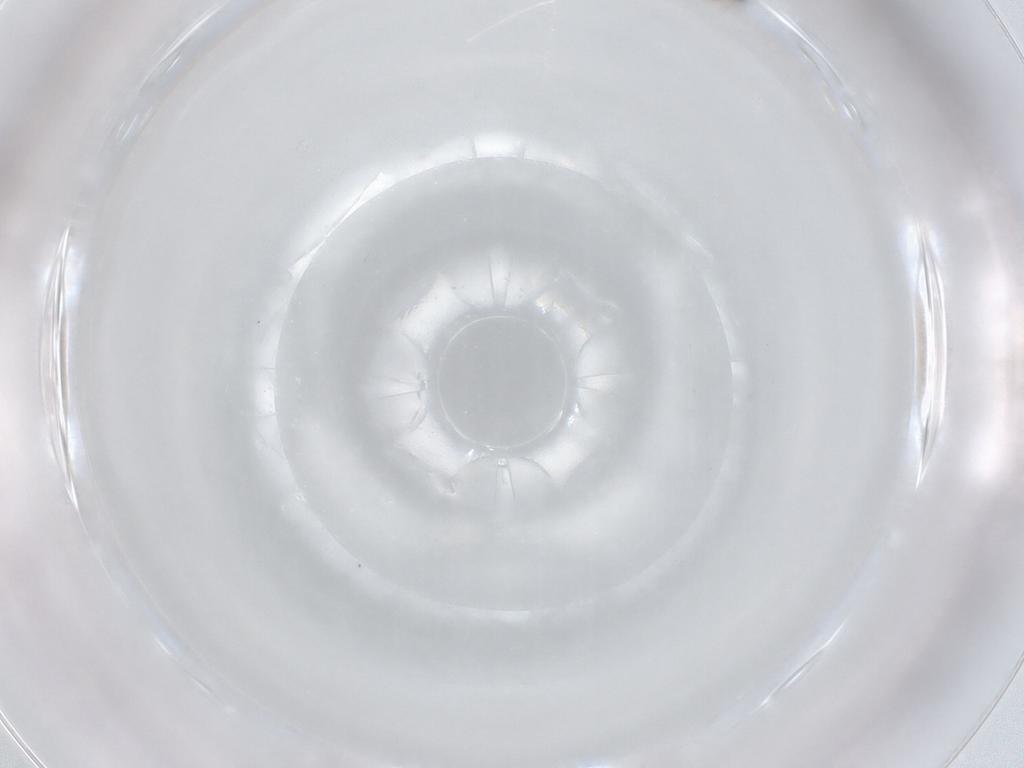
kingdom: Animalia
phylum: Arthropoda
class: Insecta
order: Diptera
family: Cecidomyiidae
